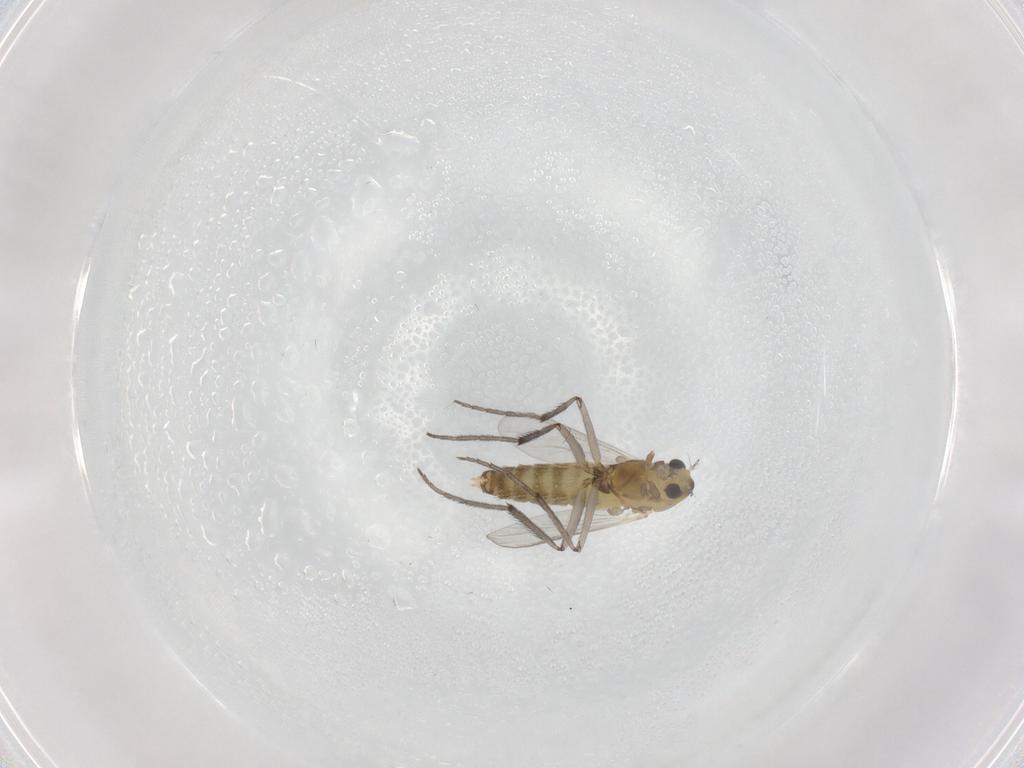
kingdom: Animalia
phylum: Arthropoda
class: Insecta
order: Diptera
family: Chironomidae
